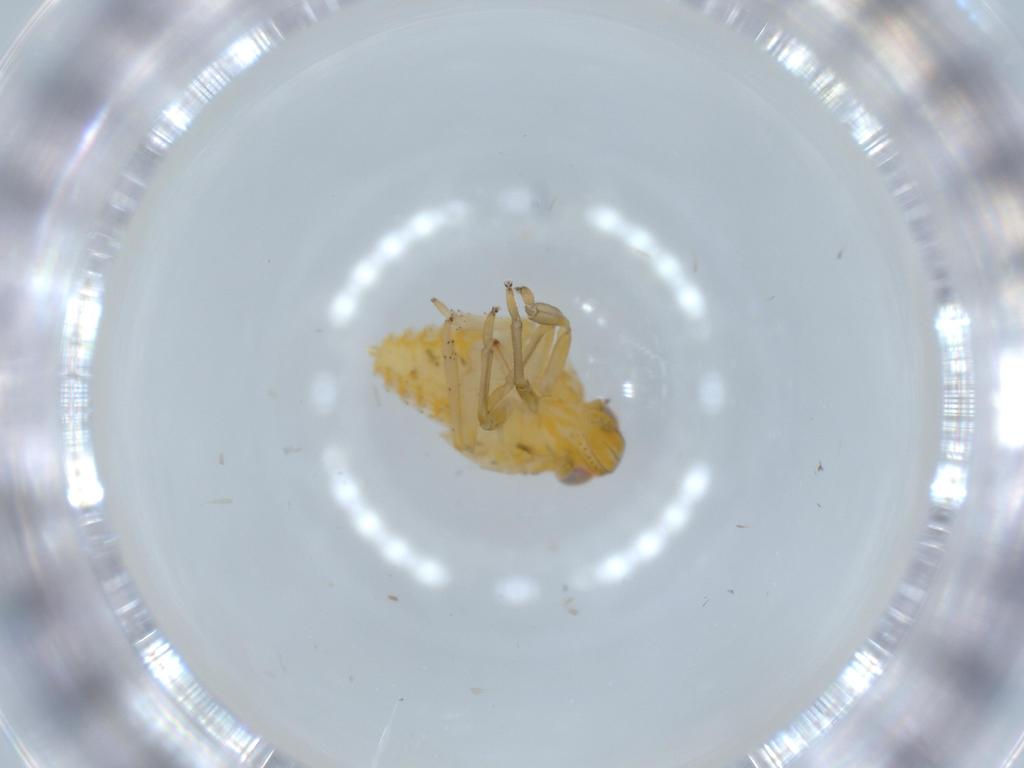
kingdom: Animalia
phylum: Arthropoda
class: Insecta
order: Hemiptera
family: Issidae
